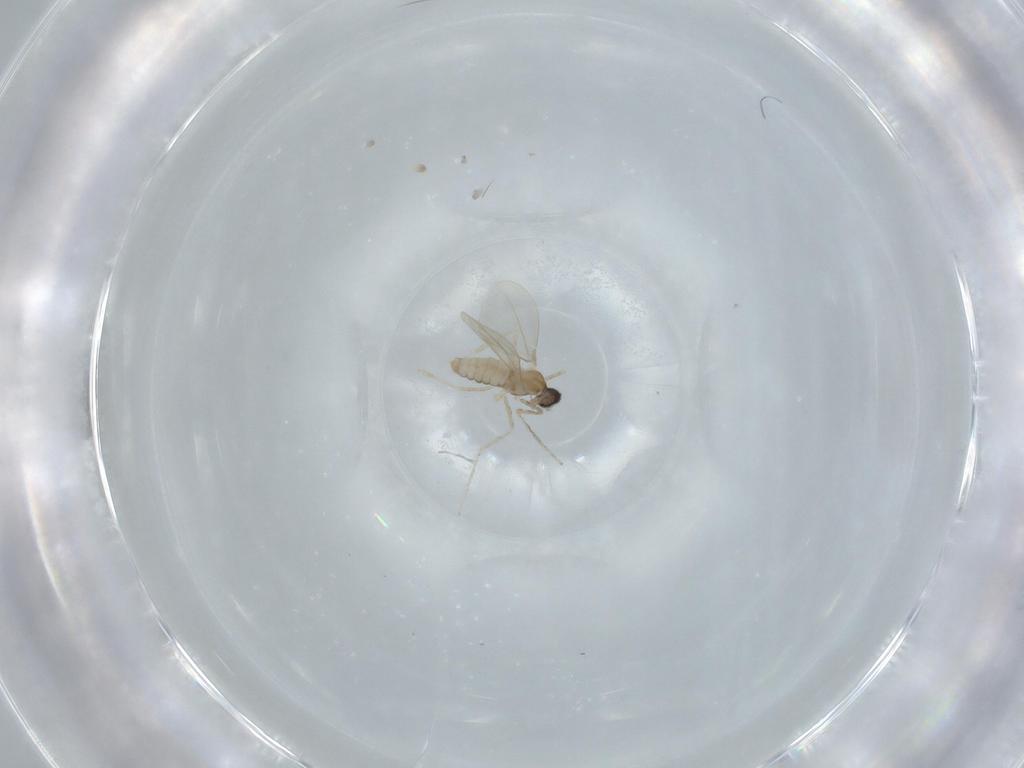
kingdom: Animalia
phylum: Arthropoda
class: Insecta
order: Diptera
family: Cecidomyiidae
